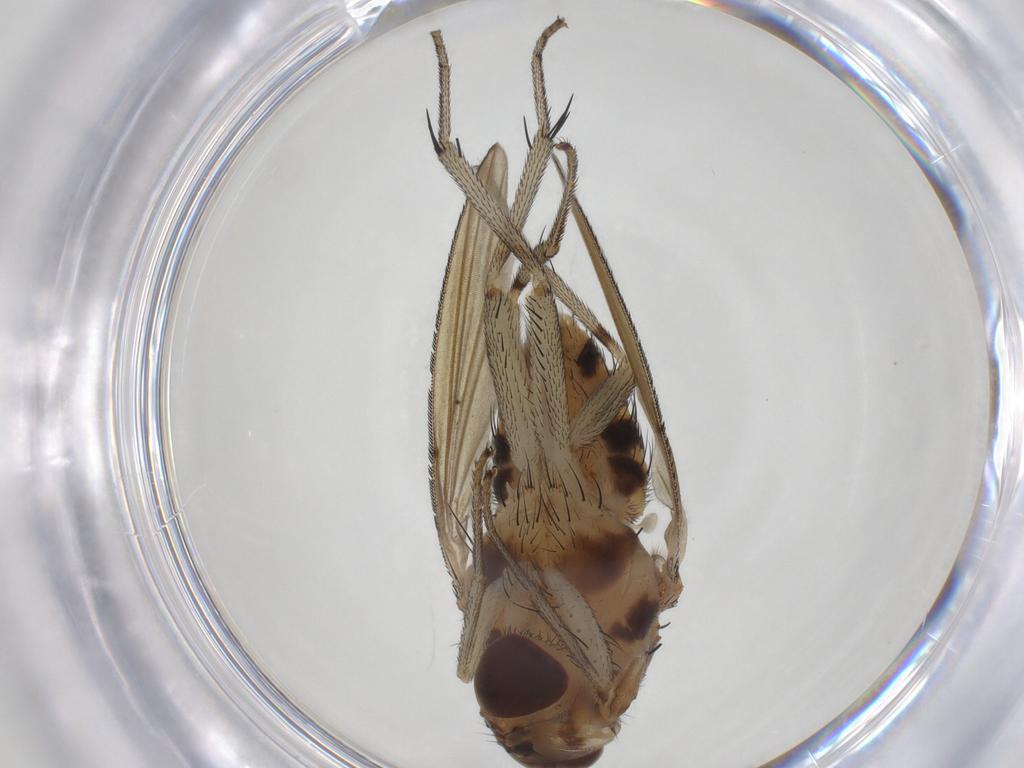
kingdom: Animalia
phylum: Arthropoda
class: Insecta
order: Diptera
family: Lauxaniidae
